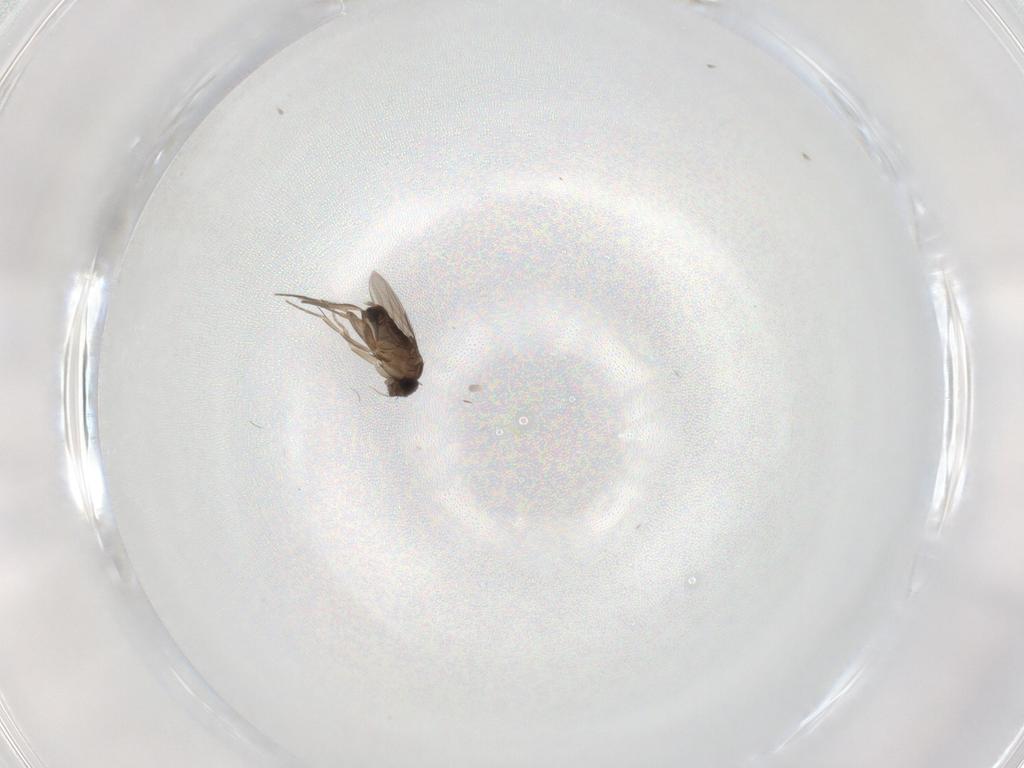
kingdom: Animalia
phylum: Arthropoda
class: Insecta
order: Diptera
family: Phoridae
